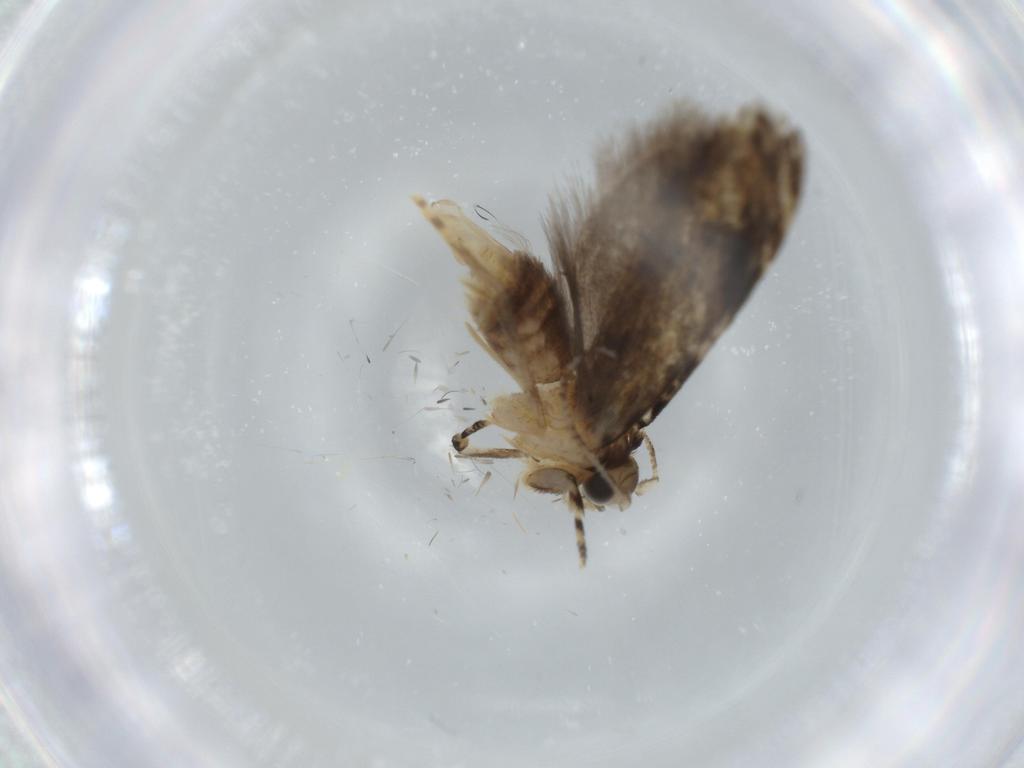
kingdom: Animalia
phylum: Arthropoda
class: Insecta
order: Lepidoptera
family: Tineidae
